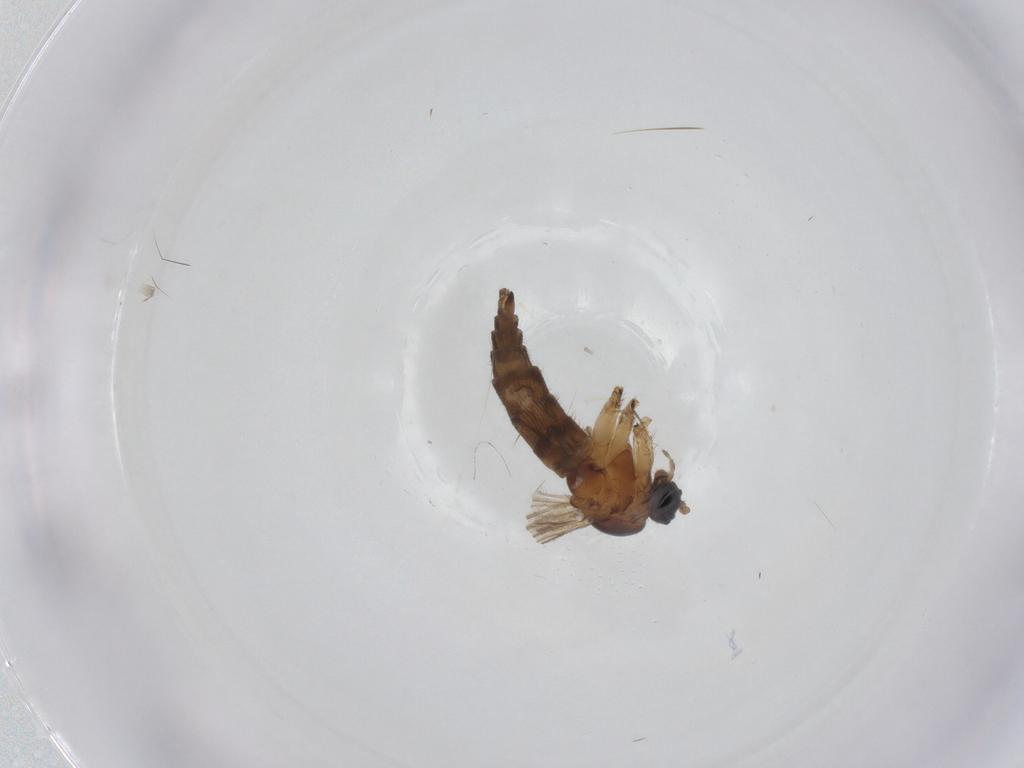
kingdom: Animalia
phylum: Arthropoda
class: Insecta
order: Diptera
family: Sciaridae
